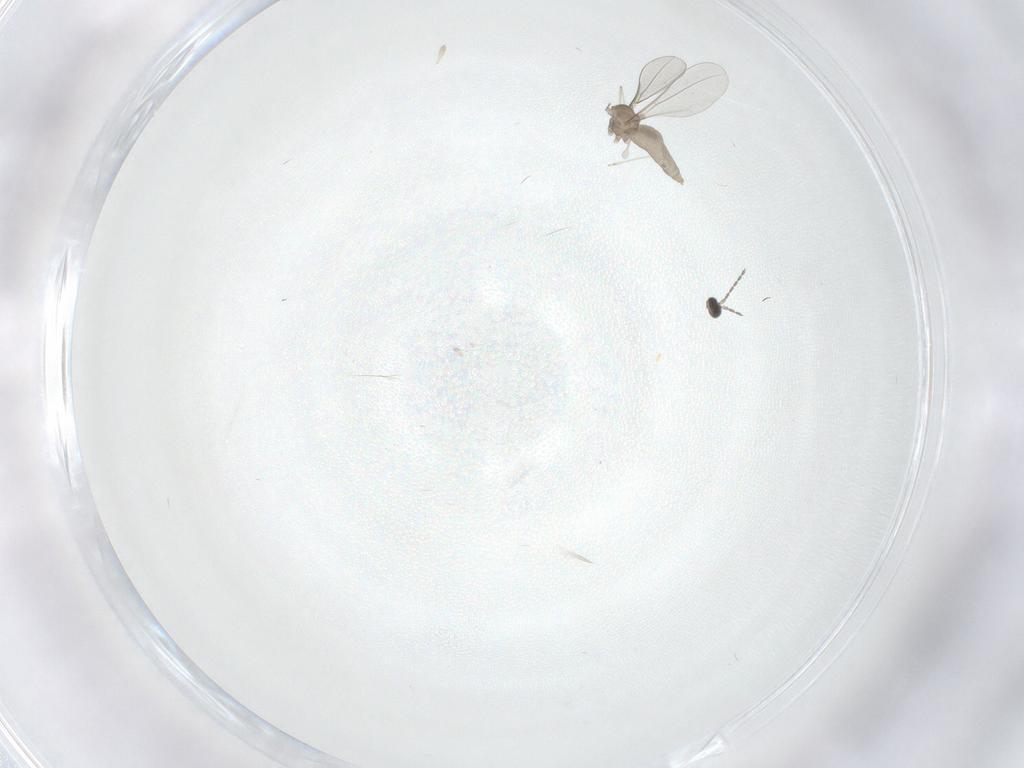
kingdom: Animalia
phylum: Arthropoda
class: Insecta
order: Diptera
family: Cecidomyiidae
